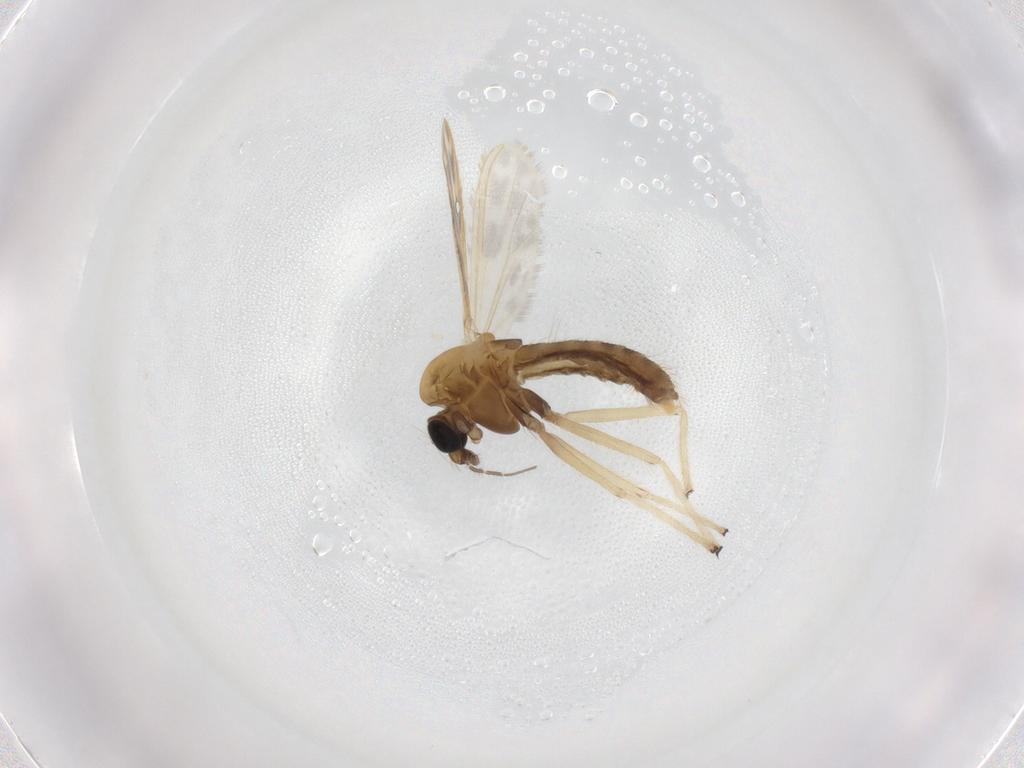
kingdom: Animalia
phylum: Arthropoda
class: Insecta
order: Diptera
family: Chironomidae
